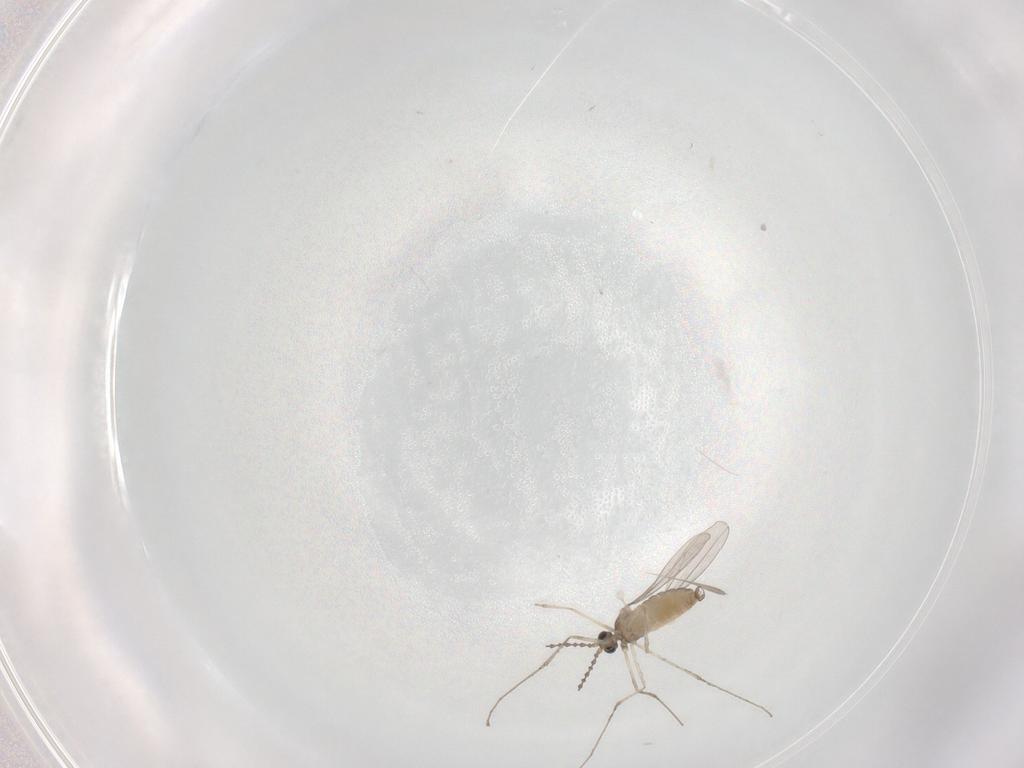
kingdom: Animalia
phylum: Arthropoda
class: Insecta
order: Diptera
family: Cecidomyiidae
